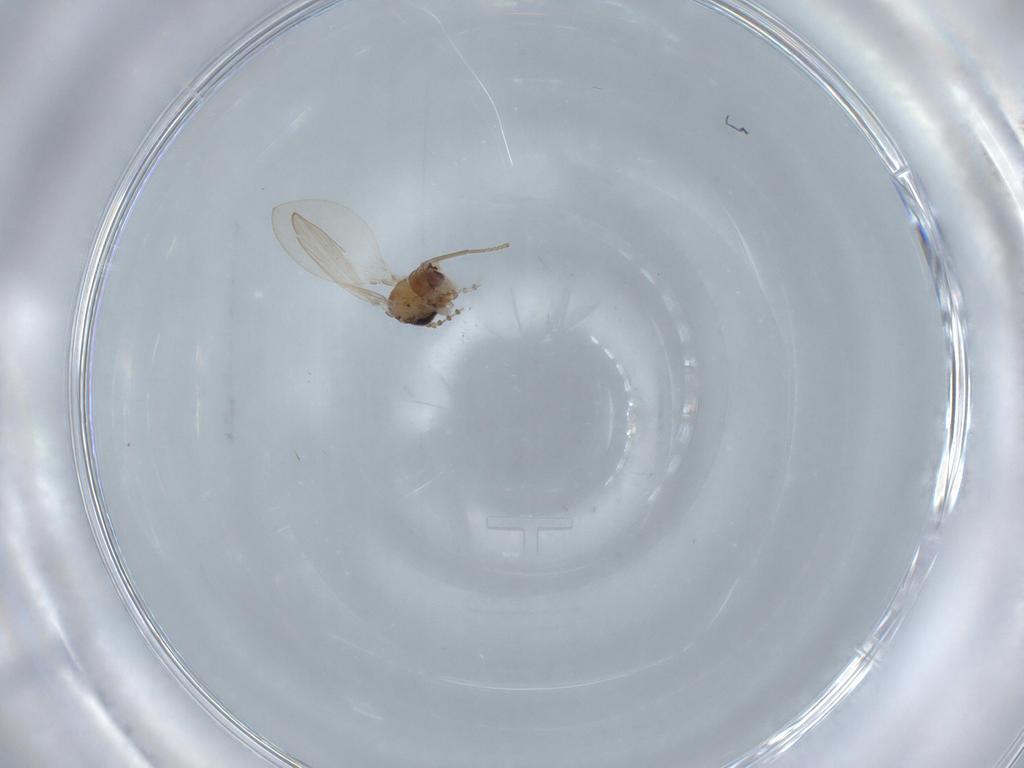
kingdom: Animalia
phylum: Arthropoda
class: Insecta
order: Diptera
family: Ceratopogonidae
